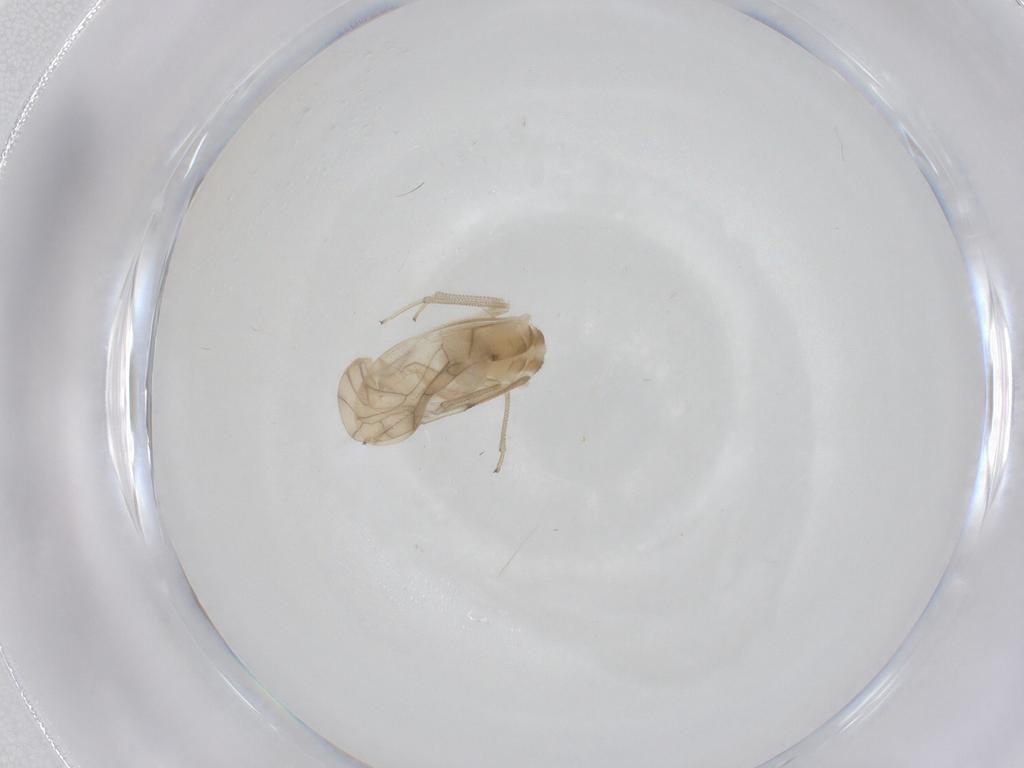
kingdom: Animalia
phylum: Arthropoda
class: Insecta
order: Psocodea
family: Caeciliusidae
